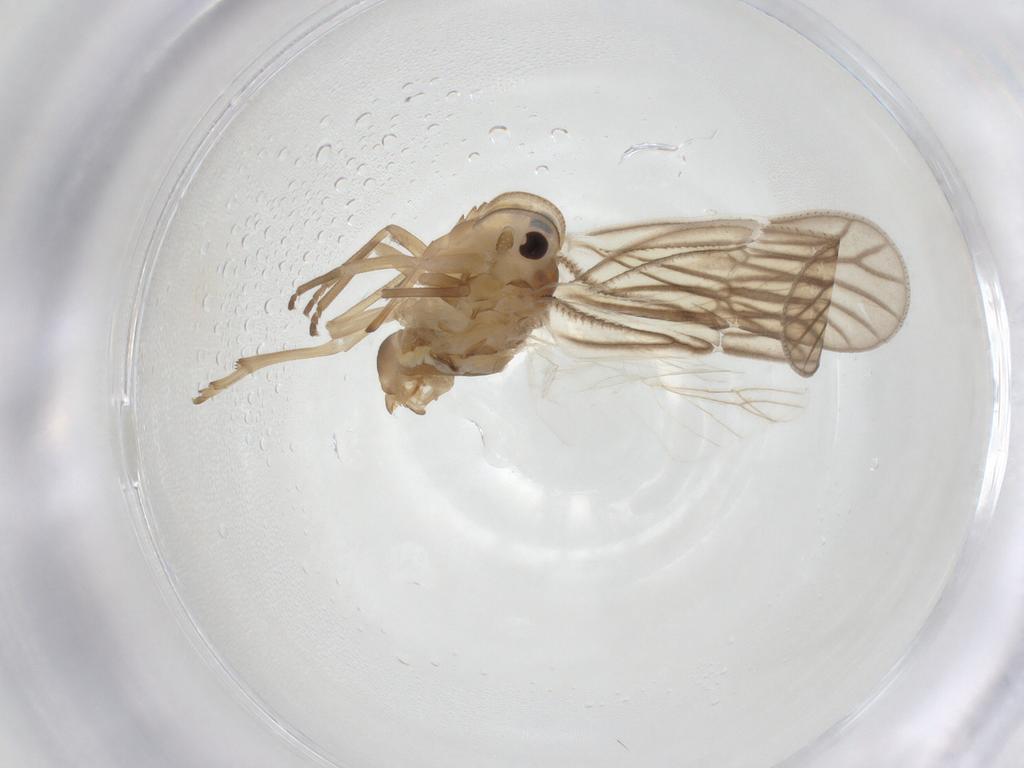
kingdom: Animalia
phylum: Arthropoda
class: Insecta
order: Hemiptera
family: Meenoplidae
